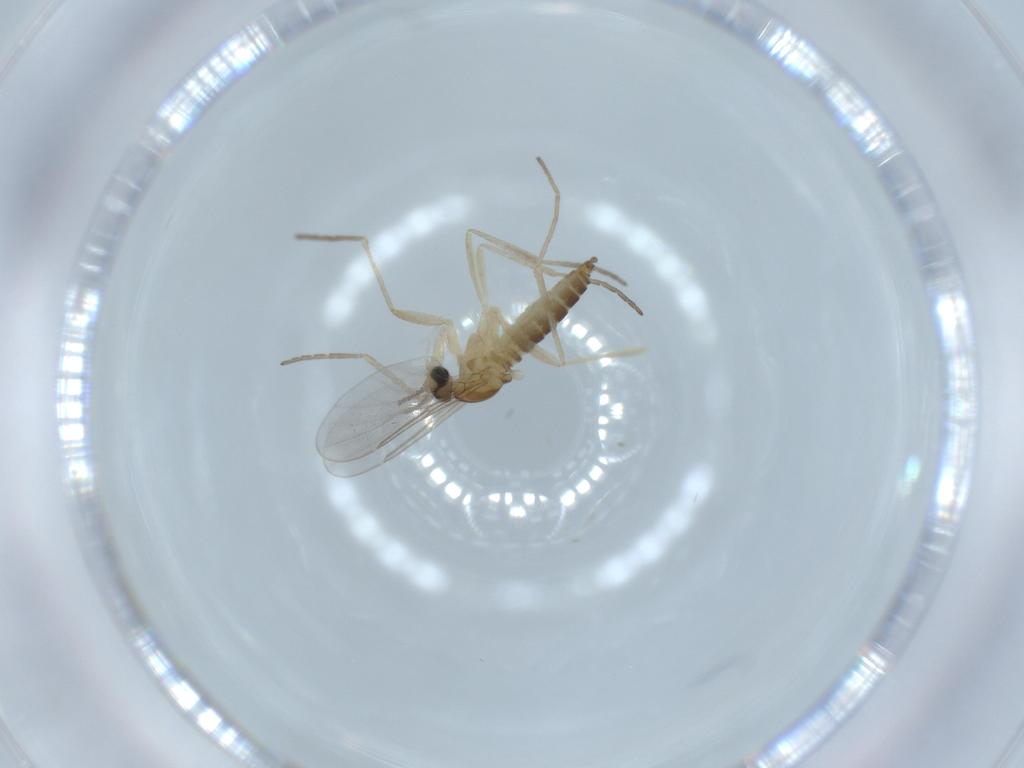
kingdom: Animalia
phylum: Arthropoda
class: Insecta
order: Diptera
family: Cecidomyiidae
